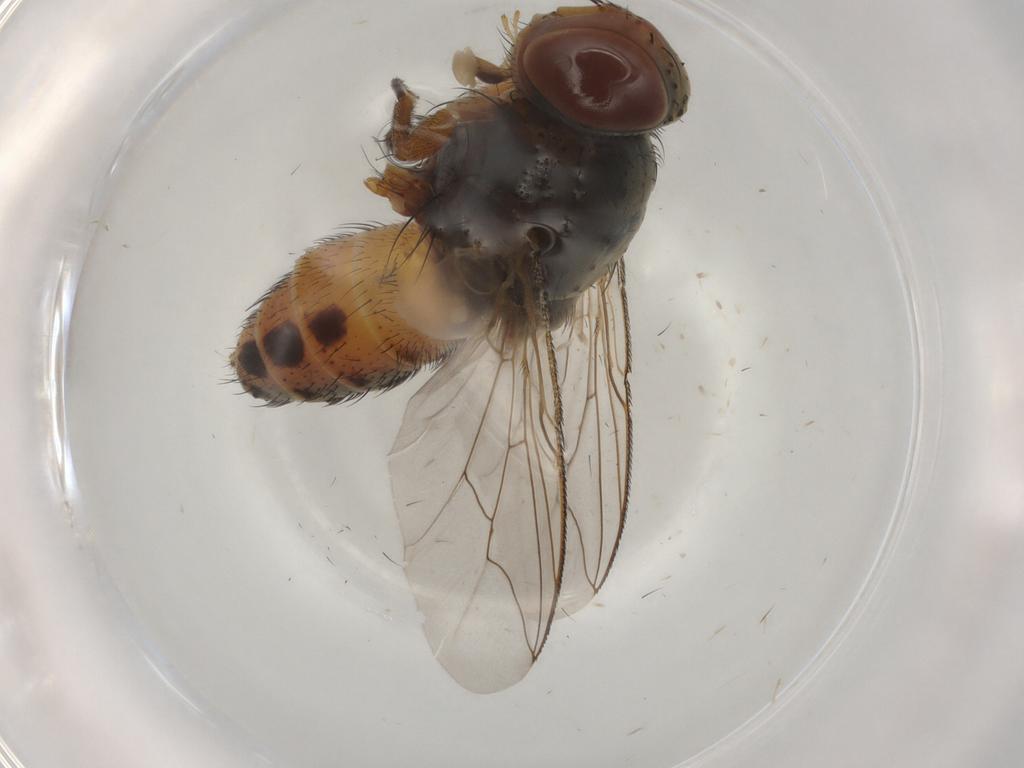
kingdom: Animalia
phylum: Arthropoda
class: Insecta
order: Diptera
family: Sarcophagidae
